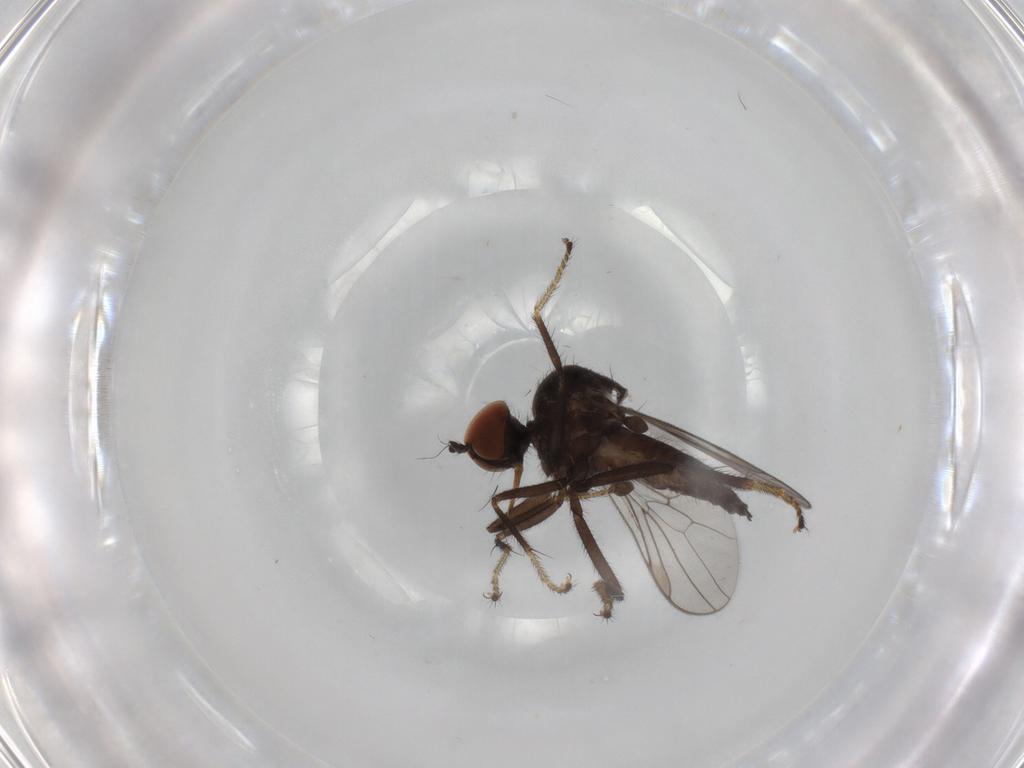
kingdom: Animalia
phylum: Arthropoda
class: Insecta
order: Diptera
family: Hybotidae
